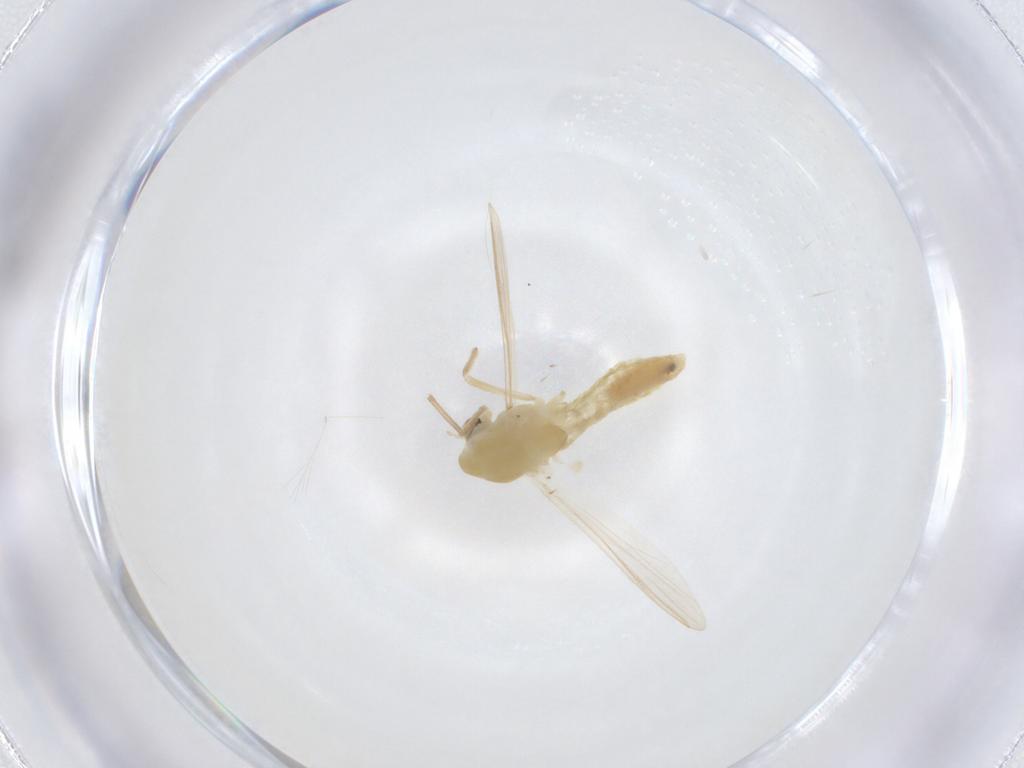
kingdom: Animalia
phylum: Arthropoda
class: Insecta
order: Diptera
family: Chironomidae
